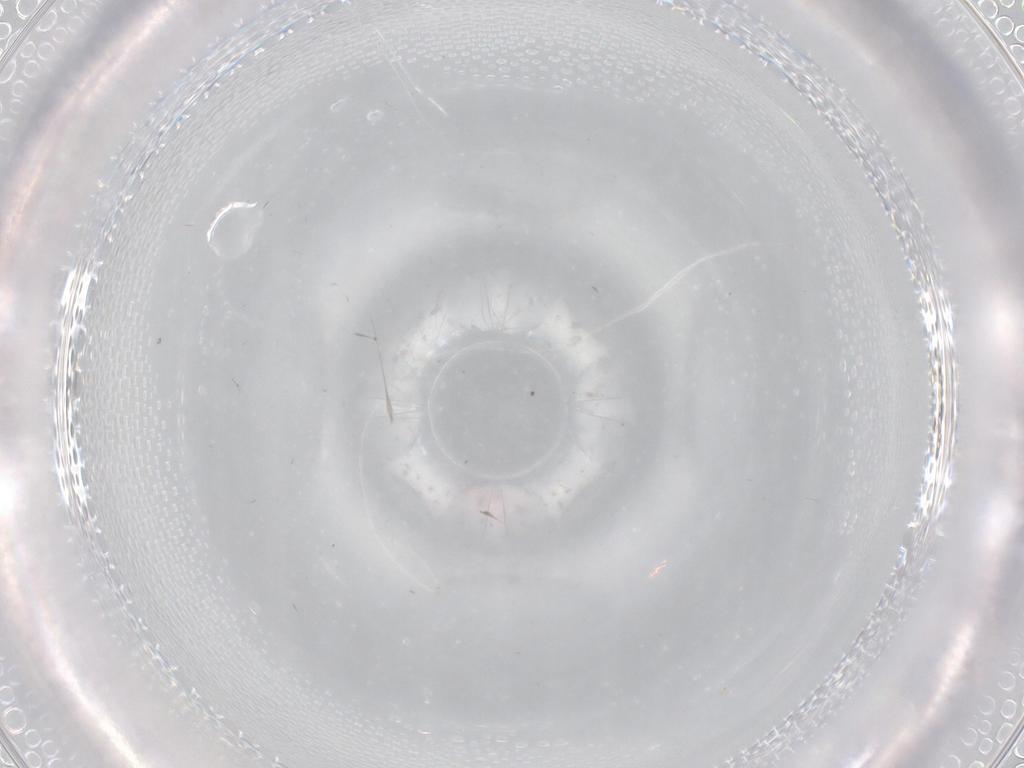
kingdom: Animalia
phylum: Arthropoda
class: Insecta
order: Diptera
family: Cecidomyiidae
